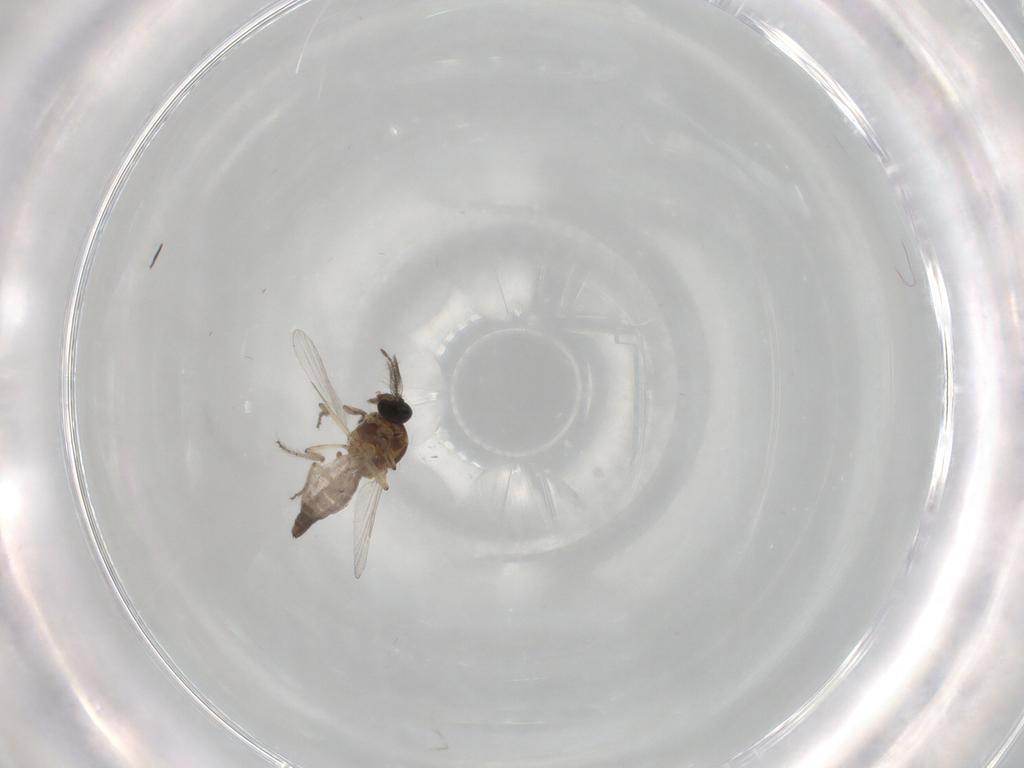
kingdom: Animalia
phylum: Arthropoda
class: Insecta
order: Diptera
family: Ceratopogonidae
